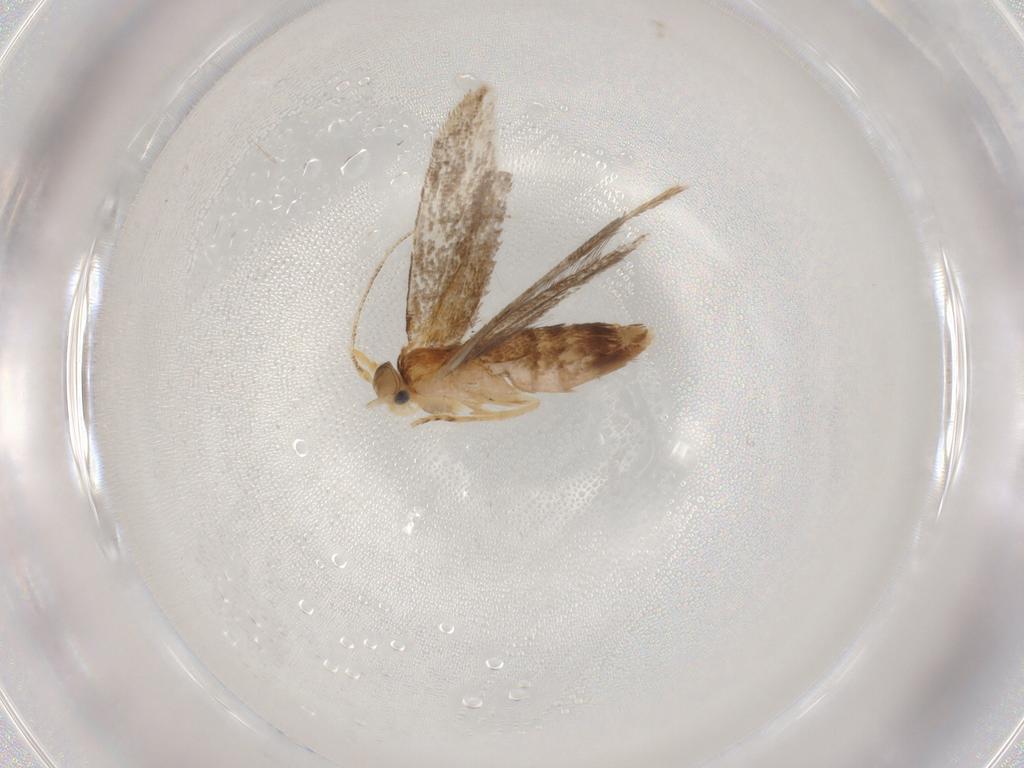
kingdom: Animalia
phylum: Arthropoda
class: Insecta
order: Lepidoptera
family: Dryadaulidae
